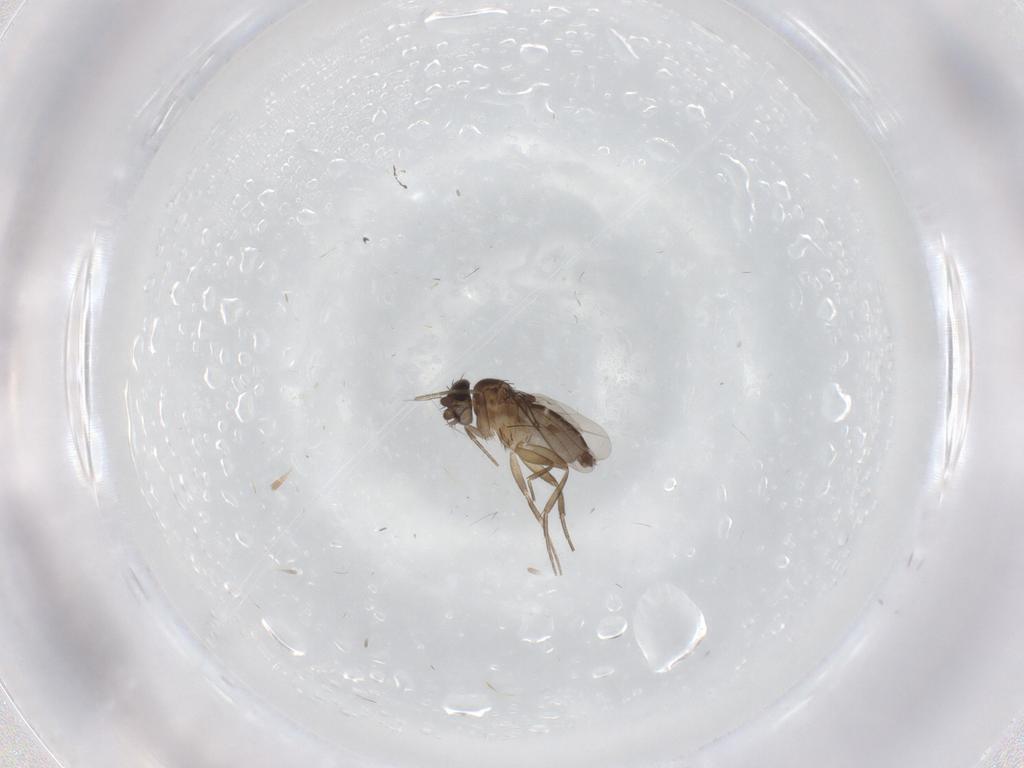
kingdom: Animalia
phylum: Arthropoda
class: Insecta
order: Diptera
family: Phoridae
